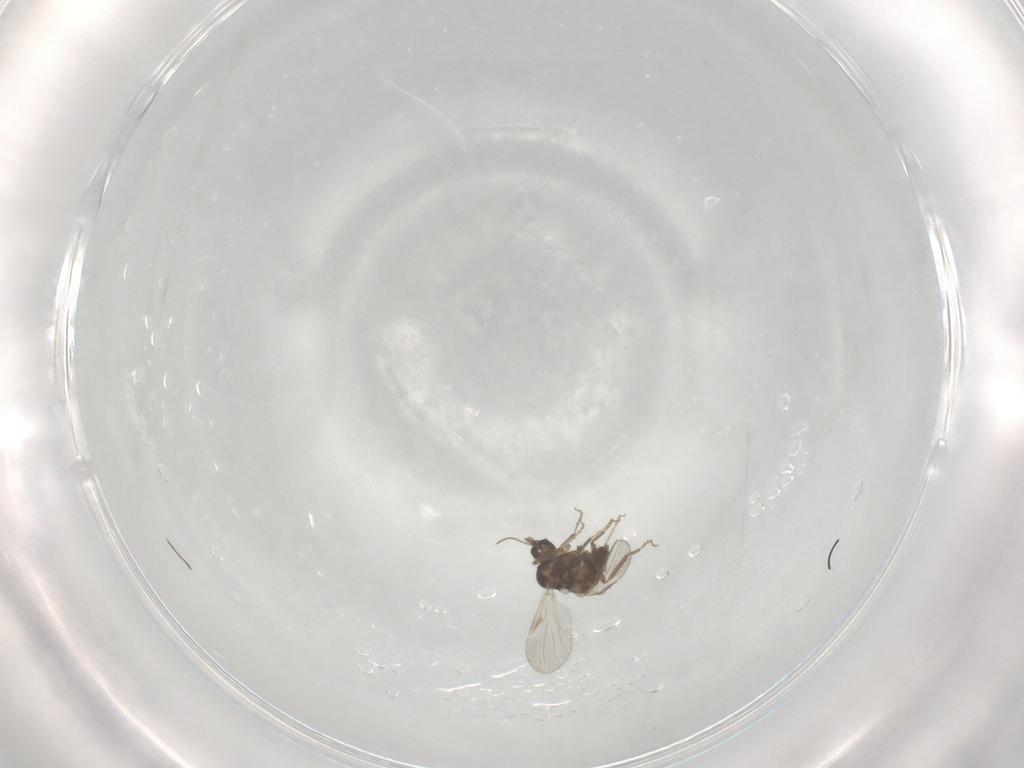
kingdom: Animalia
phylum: Arthropoda
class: Insecta
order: Diptera
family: Ceratopogonidae
